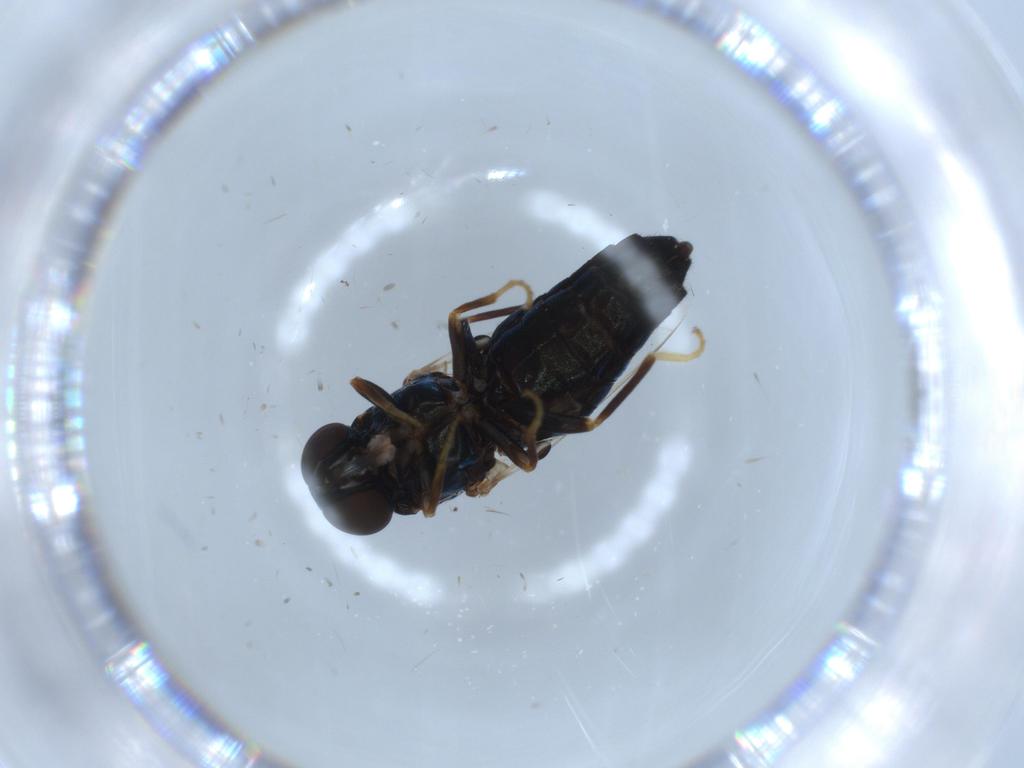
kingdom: Animalia
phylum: Arthropoda
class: Insecta
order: Diptera
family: Scenopinidae
